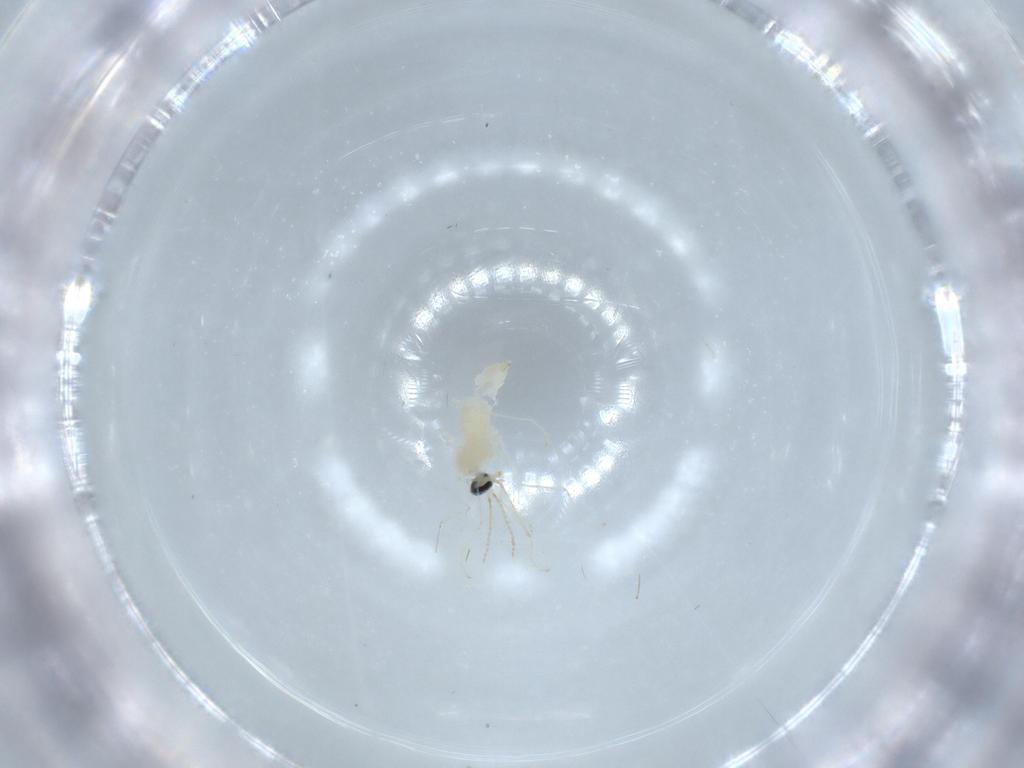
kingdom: Animalia
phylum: Arthropoda
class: Insecta
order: Diptera
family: Cecidomyiidae
